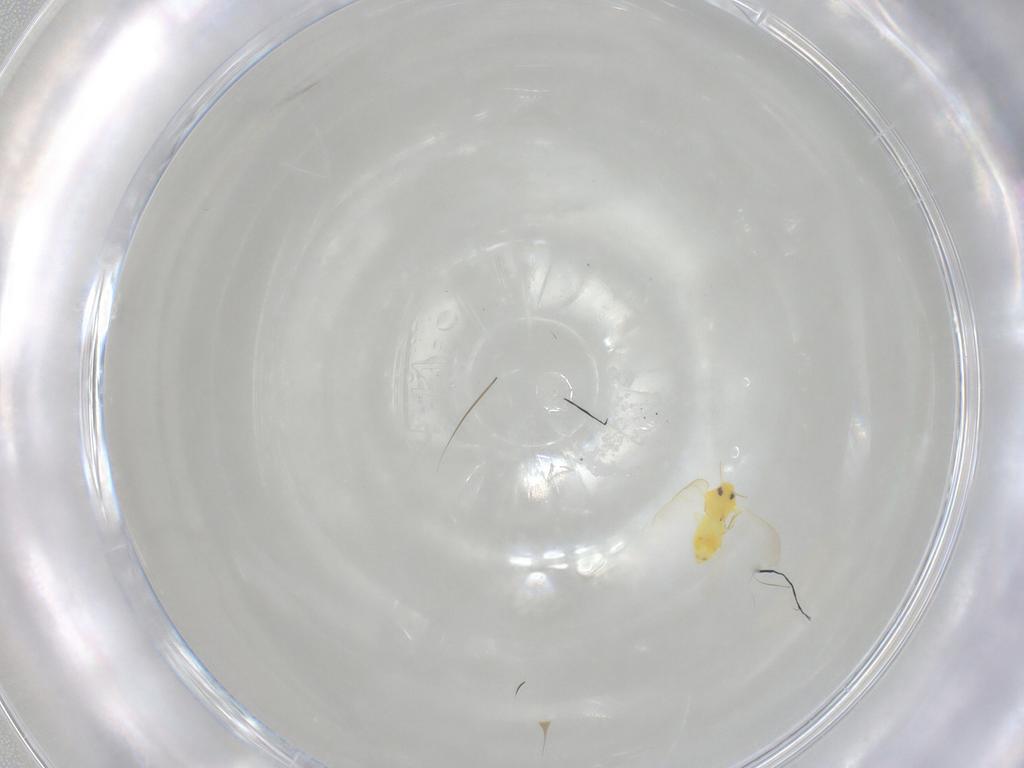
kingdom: Animalia
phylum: Arthropoda
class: Insecta
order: Hemiptera
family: Aleyrodidae
